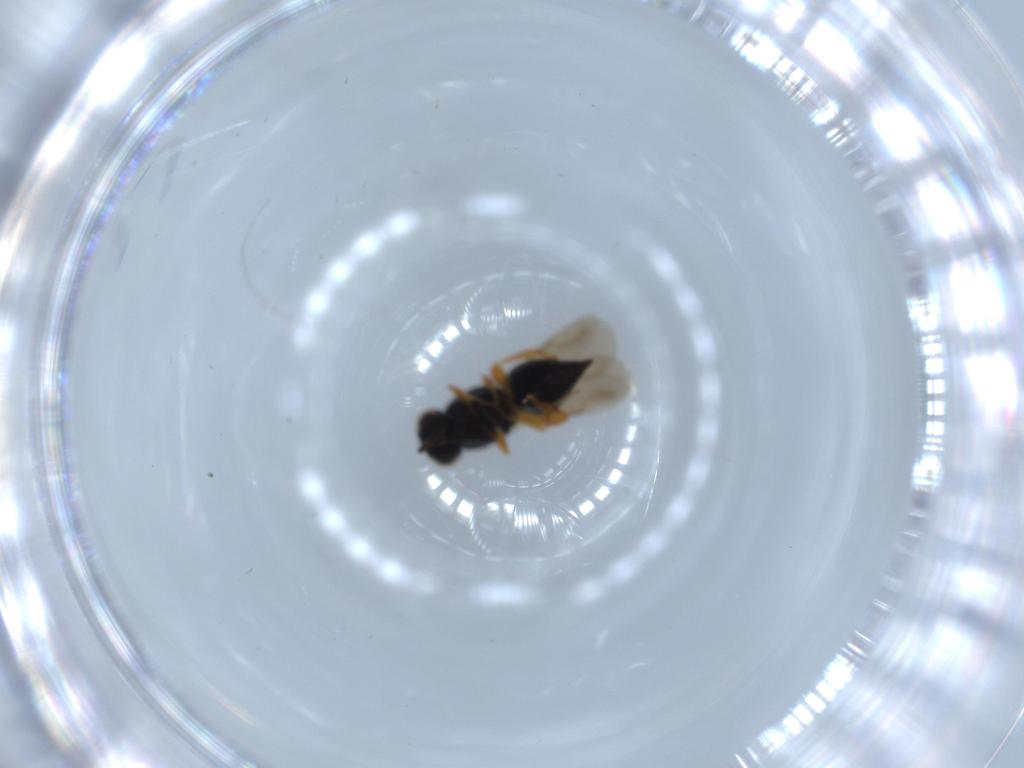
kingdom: Animalia
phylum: Arthropoda
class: Insecta
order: Hymenoptera
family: Ceraphronidae
